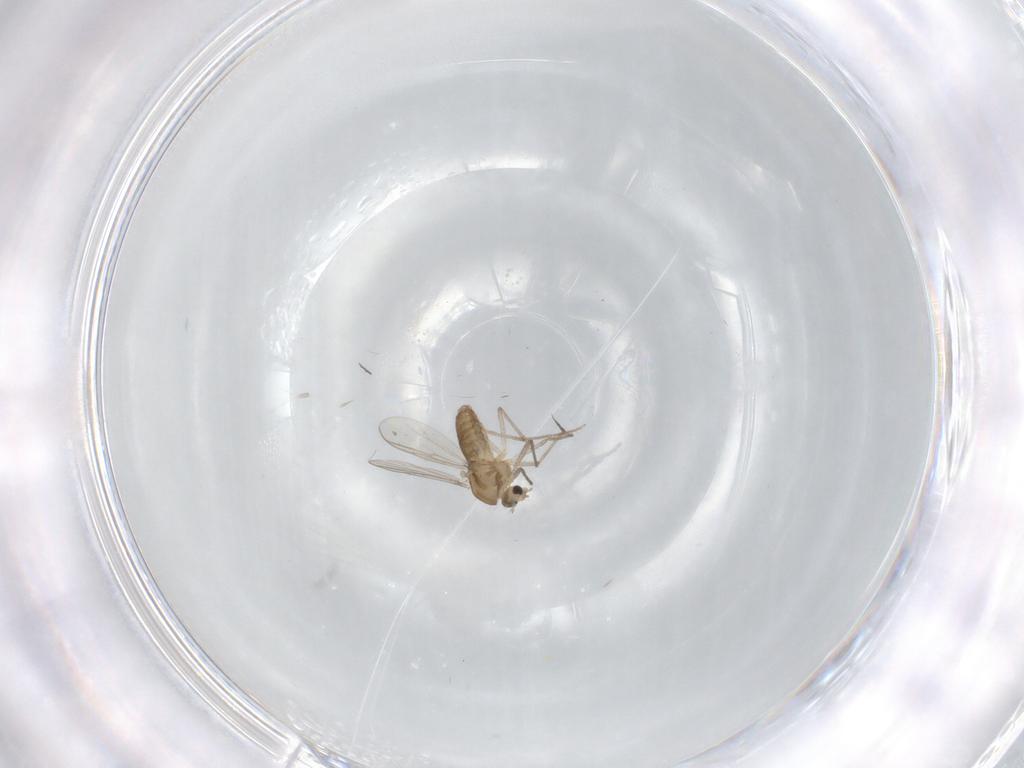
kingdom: Animalia
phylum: Arthropoda
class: Insecta
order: Diptera
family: Chironomidae
